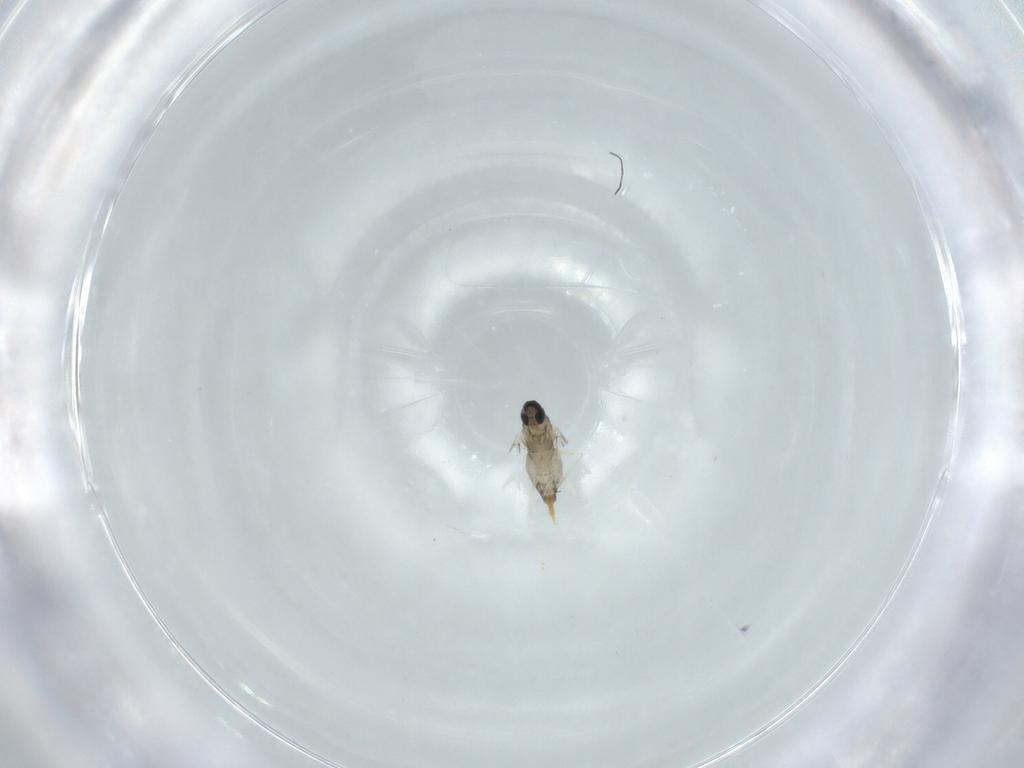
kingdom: Animalia
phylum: Arthropoda
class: Insecta
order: Diptera
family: Cecidomyiidae
